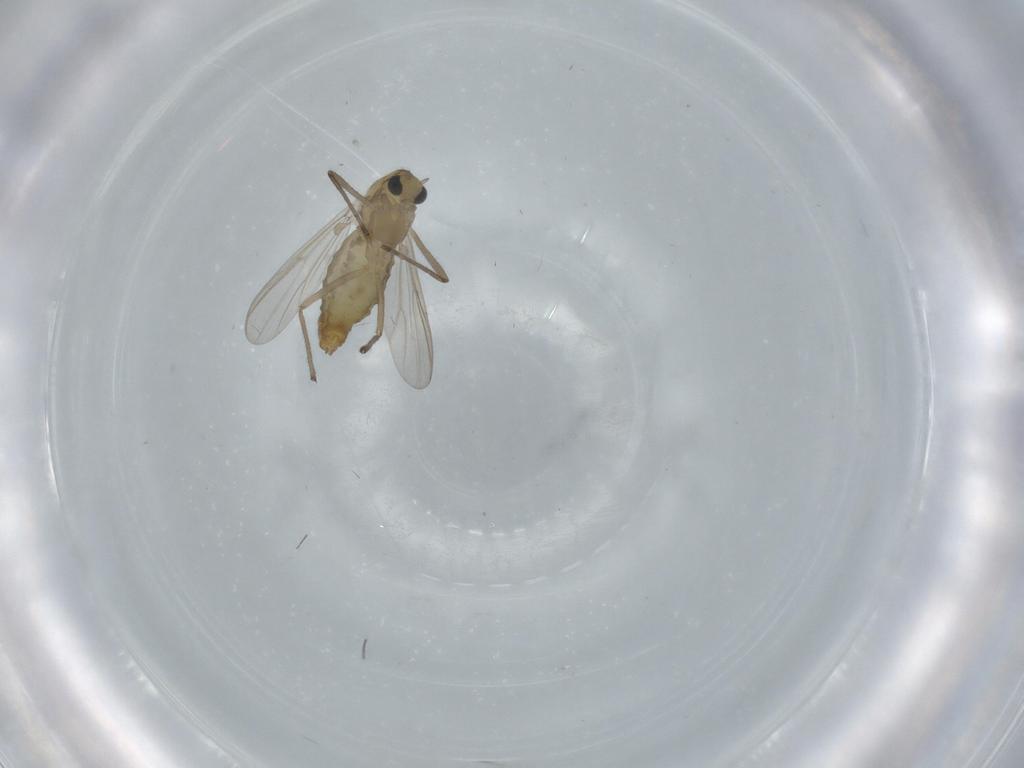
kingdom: Animalia
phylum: Arthropoda
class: Insecta
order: Diptera
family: Chironomidae
